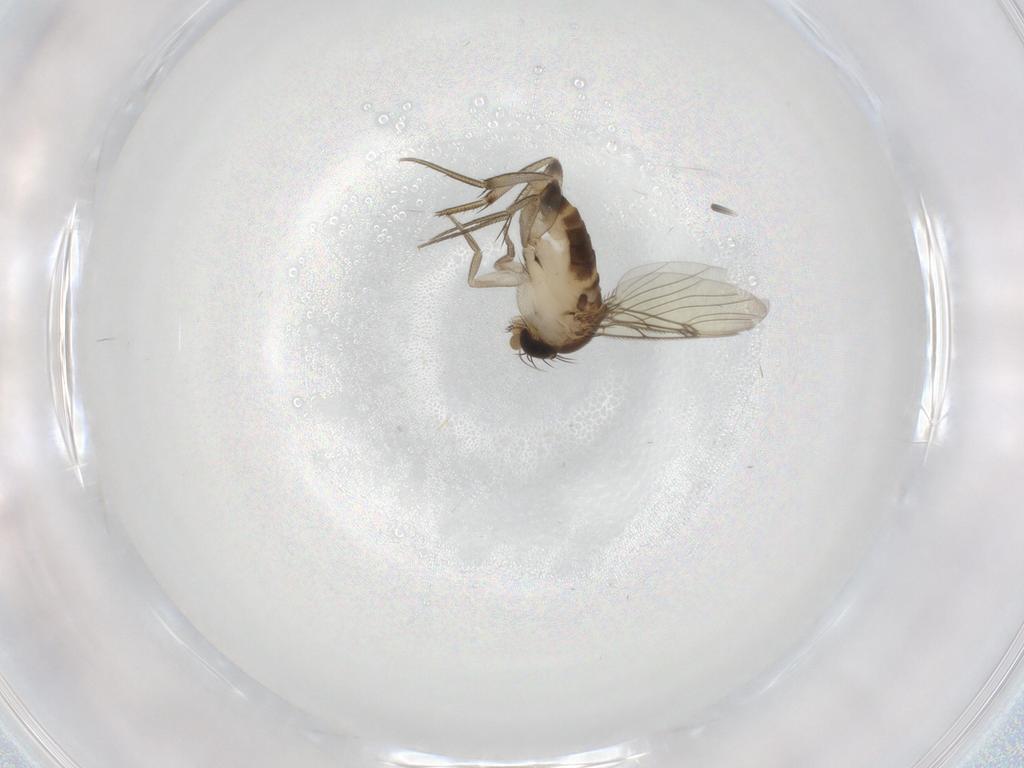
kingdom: Animalia
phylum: Arthropoda
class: Insecta
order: Diptera
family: Phoridae
